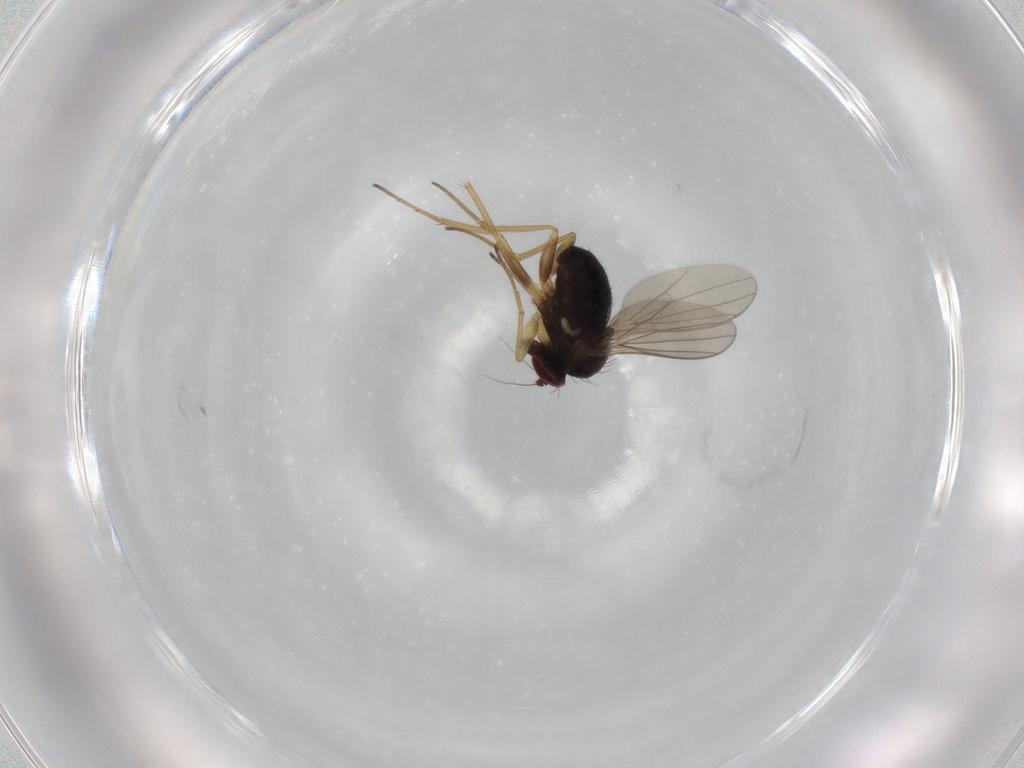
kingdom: Animalia
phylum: Arthropoda
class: Insecta
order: Diptera
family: Dolichopodidae
